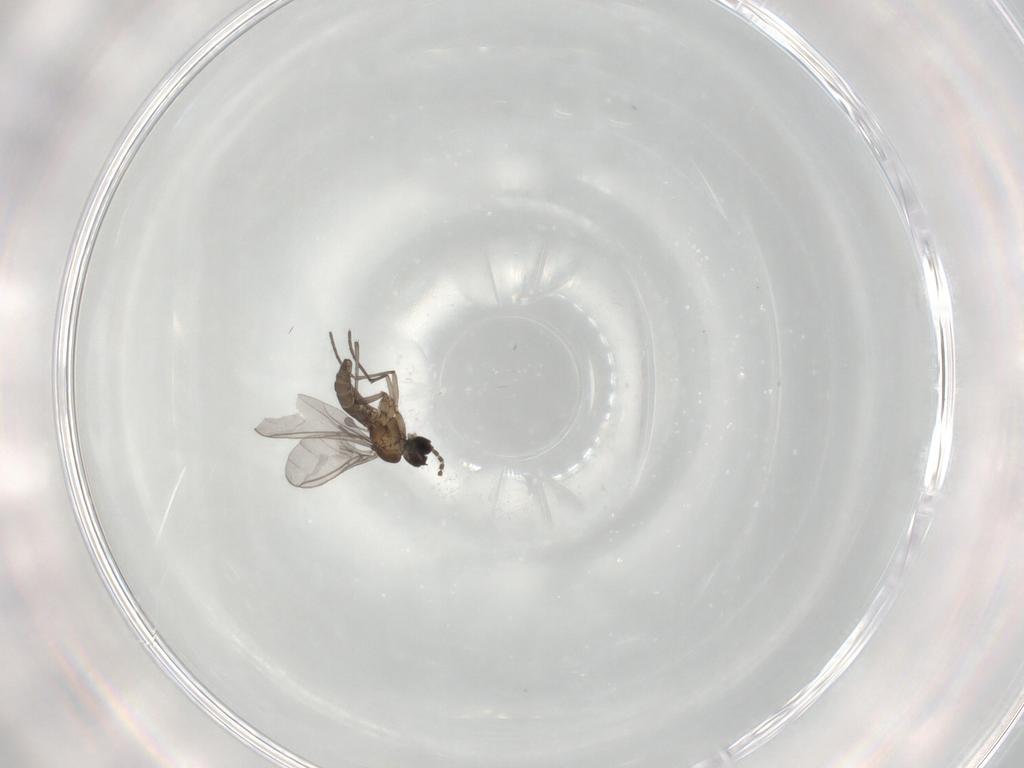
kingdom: Animalia
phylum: Arthropoda
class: Insecta
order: Diptera
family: Sciaridae
